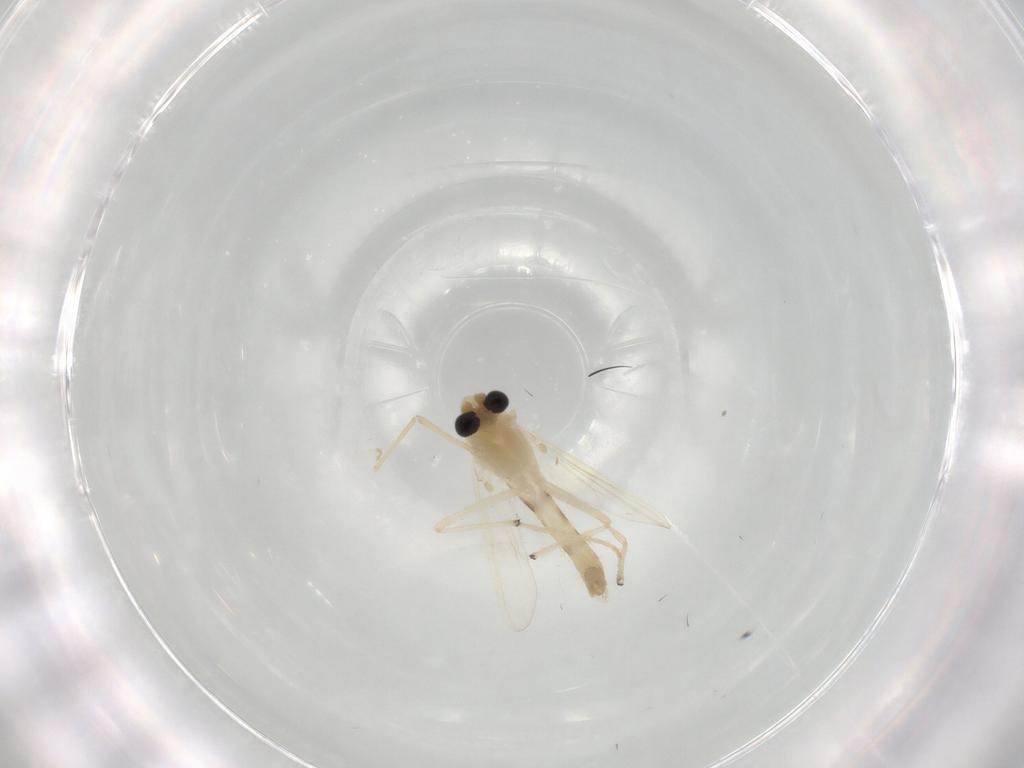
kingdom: Animalia
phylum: Arthropoda
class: Insecta
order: Diptera
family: Chironomidae
